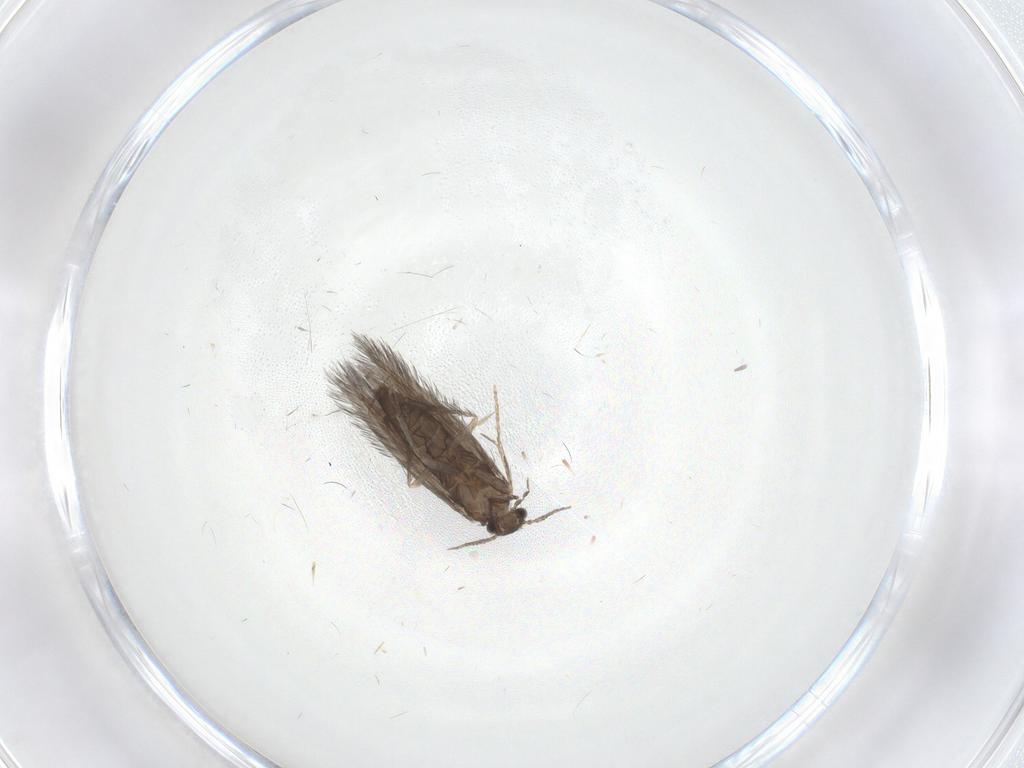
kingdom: Animalia
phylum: Arthropoda
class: Insecta
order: Trichoptera
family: Hydroptilidae
